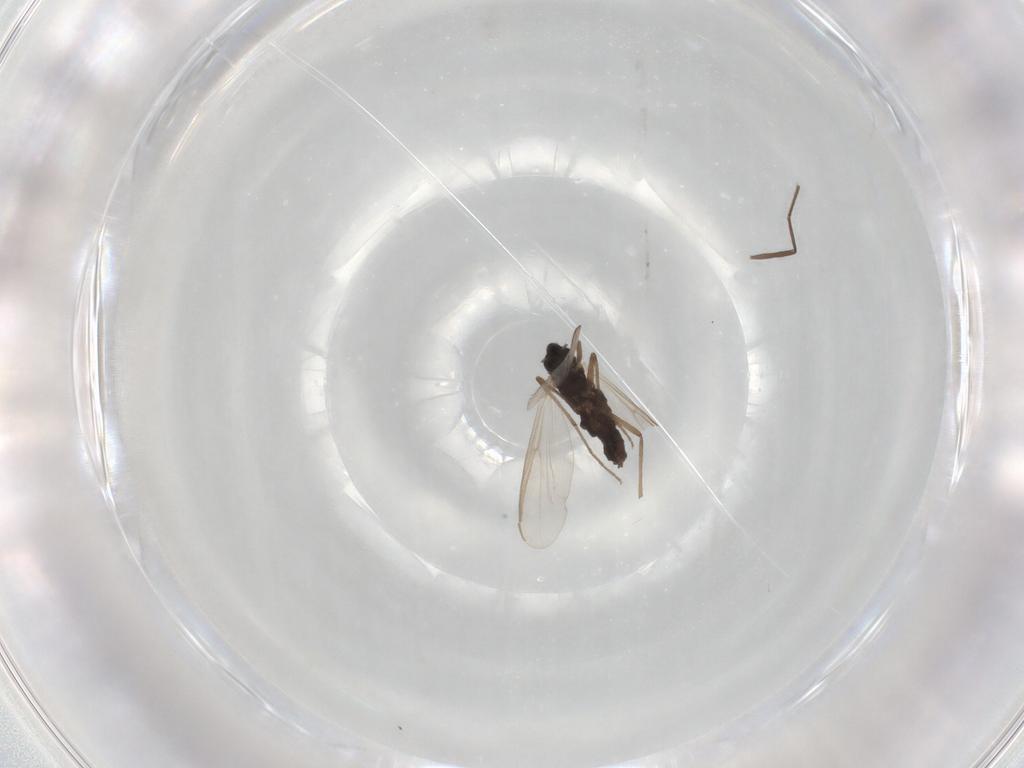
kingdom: Animalia
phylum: Arthropoda
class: Insecta
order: Diptera
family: Chironomidae
